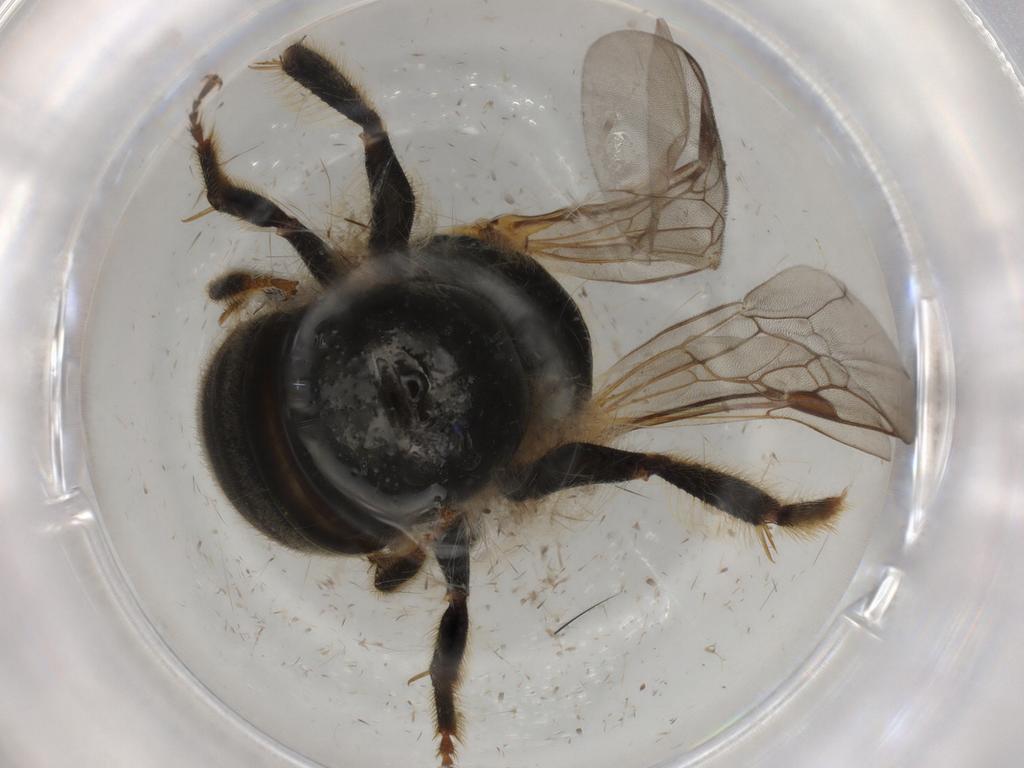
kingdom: Animalia
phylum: Arthropoda
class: Insecta
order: Hymenoptera
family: Halictidae
